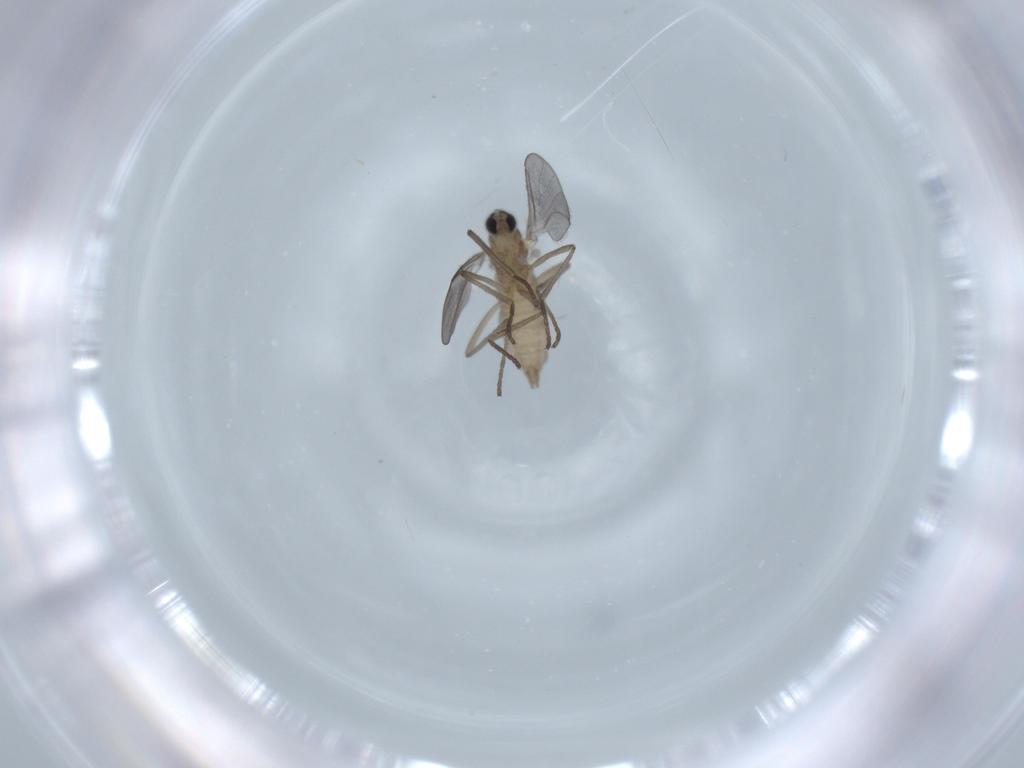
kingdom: Animalia
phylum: Arthropoda
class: Insecta
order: Diptera
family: Cecidomyiidae
